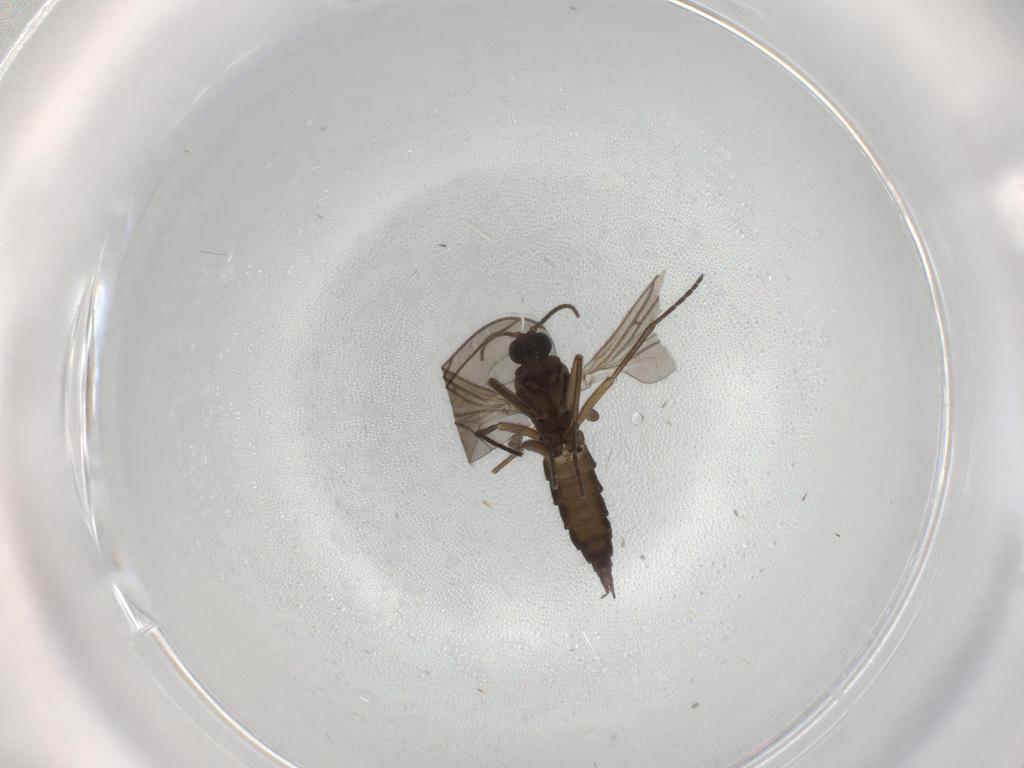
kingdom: Animalia
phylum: Arthropoda
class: Insecta
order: Diptera
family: Sciaridae
